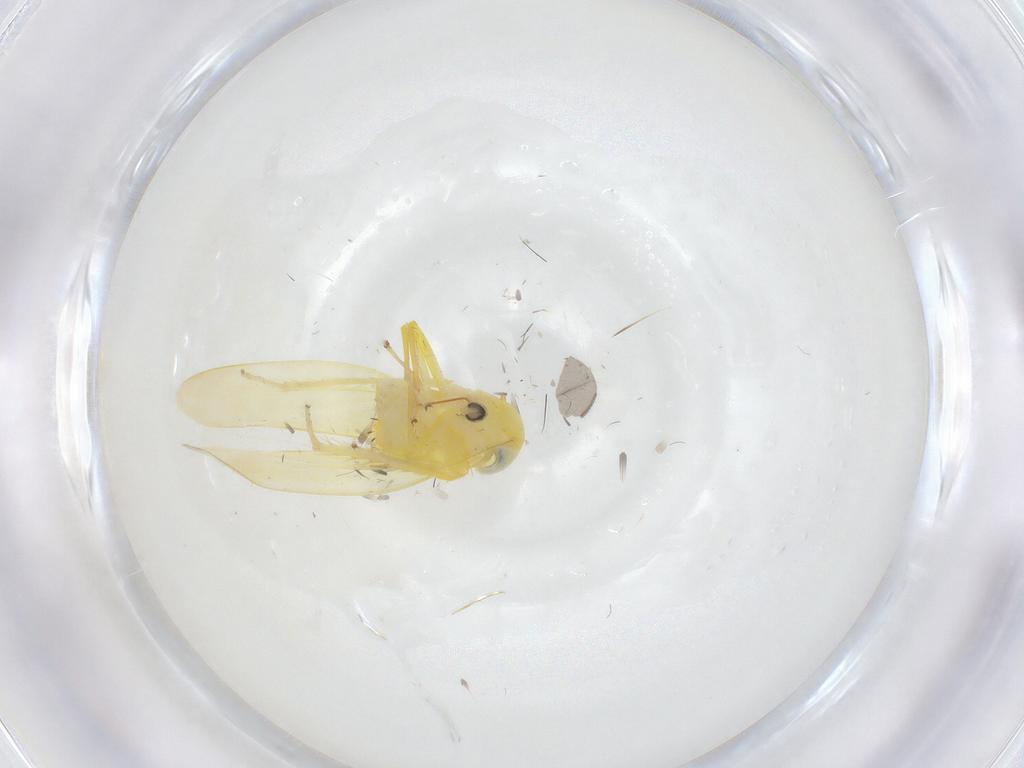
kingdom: Animalia
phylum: Arthropoda
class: Insecta
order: Hemiptera
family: Cicadellidae
